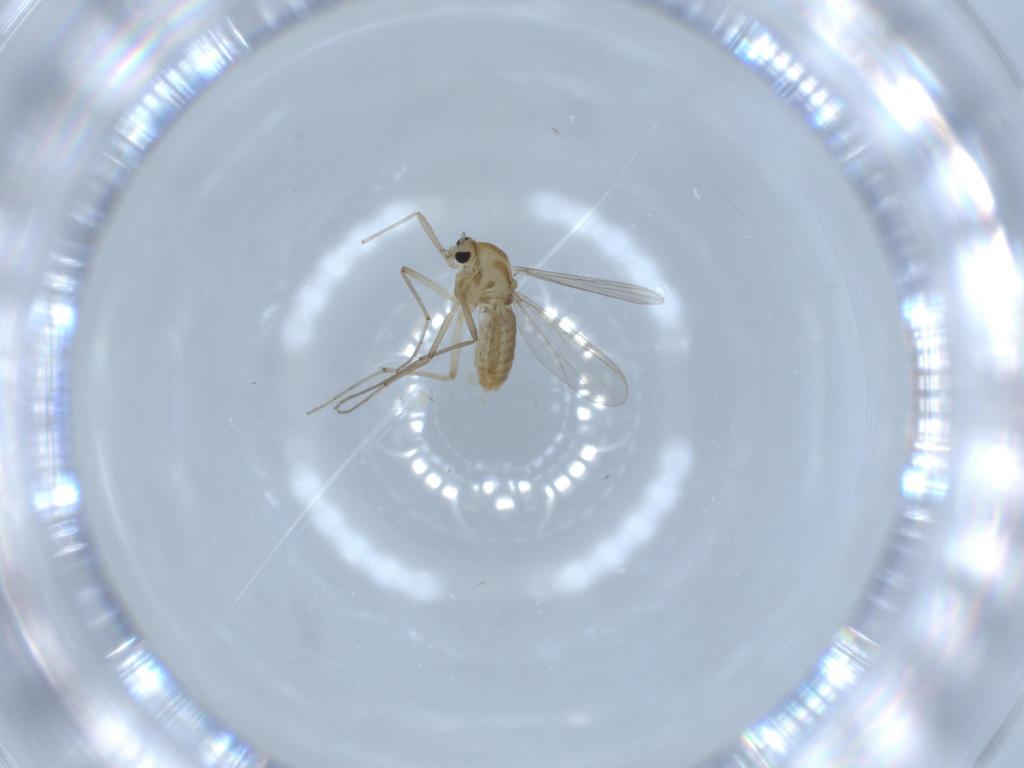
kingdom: Animalia
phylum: Arthropoda
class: Insecta
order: Diptera
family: Chironomidae
